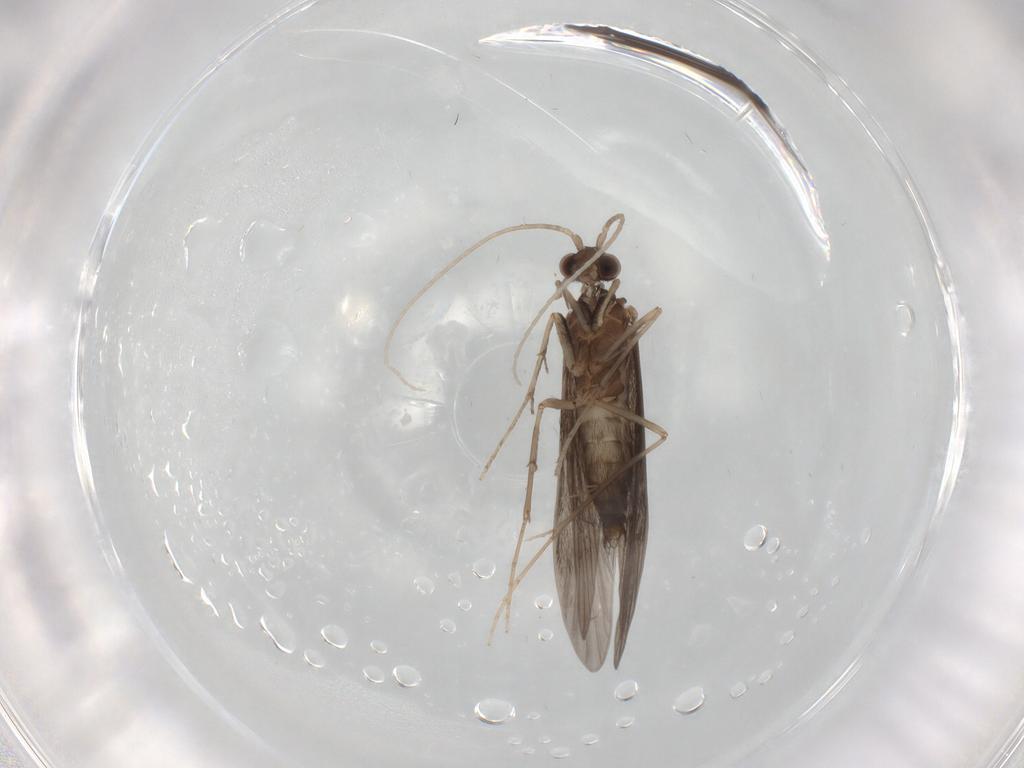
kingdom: Animalia
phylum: Arthropoda
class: Insecta
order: Trichoptera
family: Xiphocentronidae
